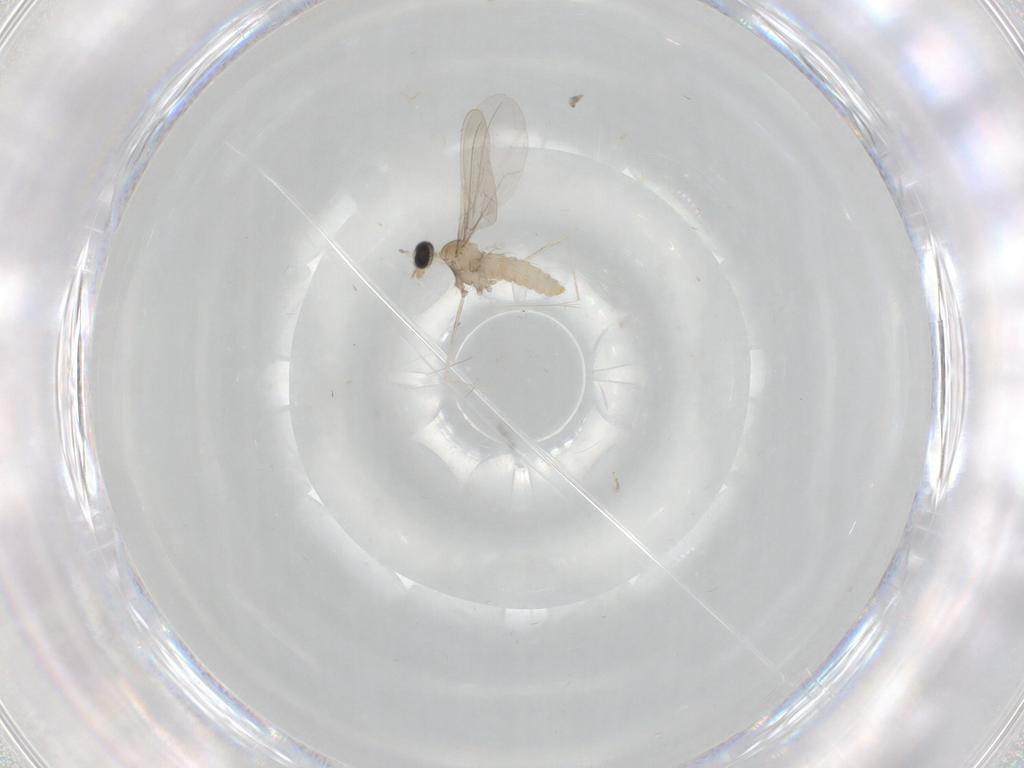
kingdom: Animalia
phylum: Arthropoda
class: Insecta
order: Diptera
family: Cecidomyiidae
